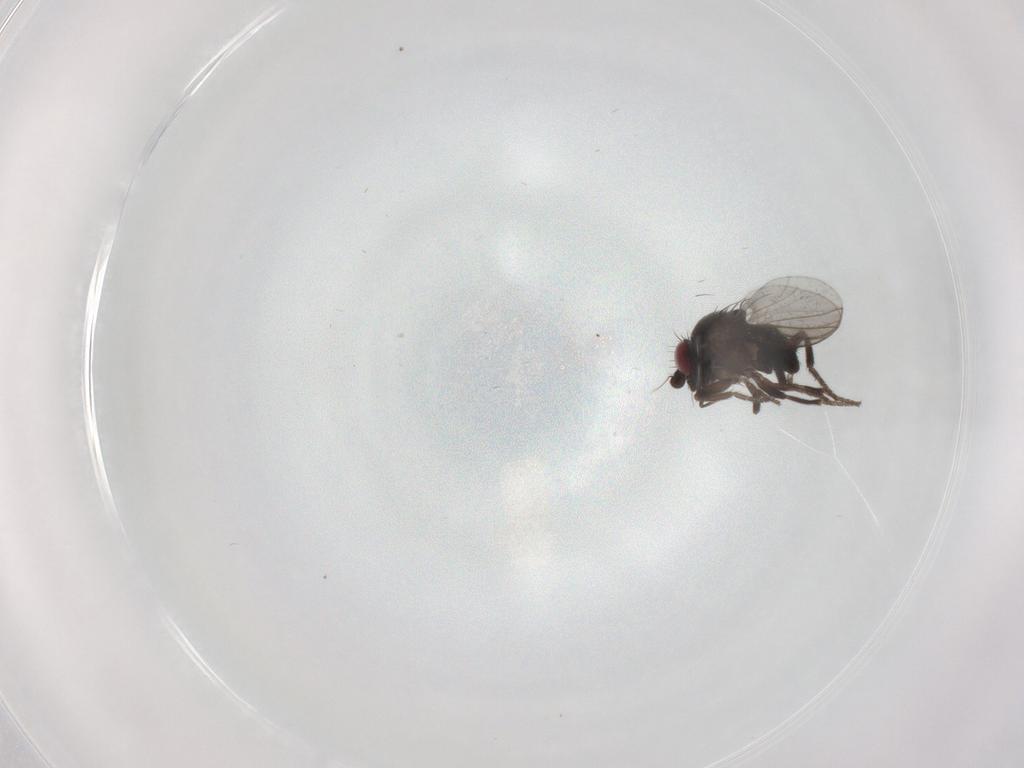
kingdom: Animalia
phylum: Arthropoda
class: Insecta
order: Diptera
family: Milichiidae
